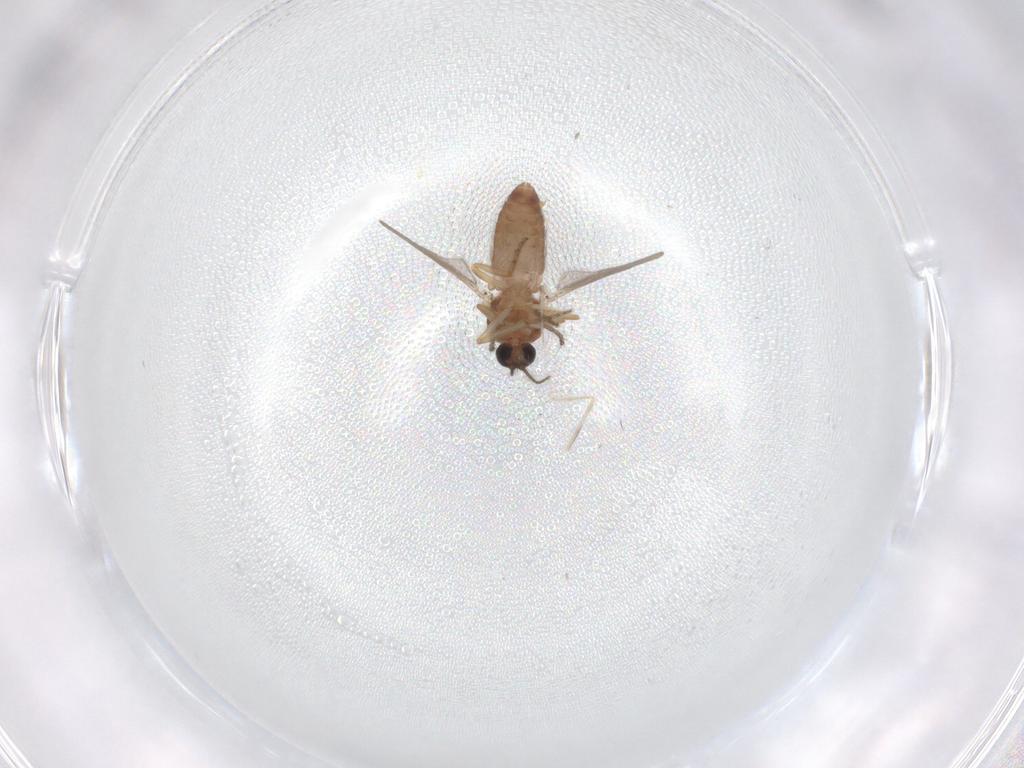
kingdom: Animalia
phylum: Arthropoda
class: Insecta
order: Diptera
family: Ceratopogonidae
